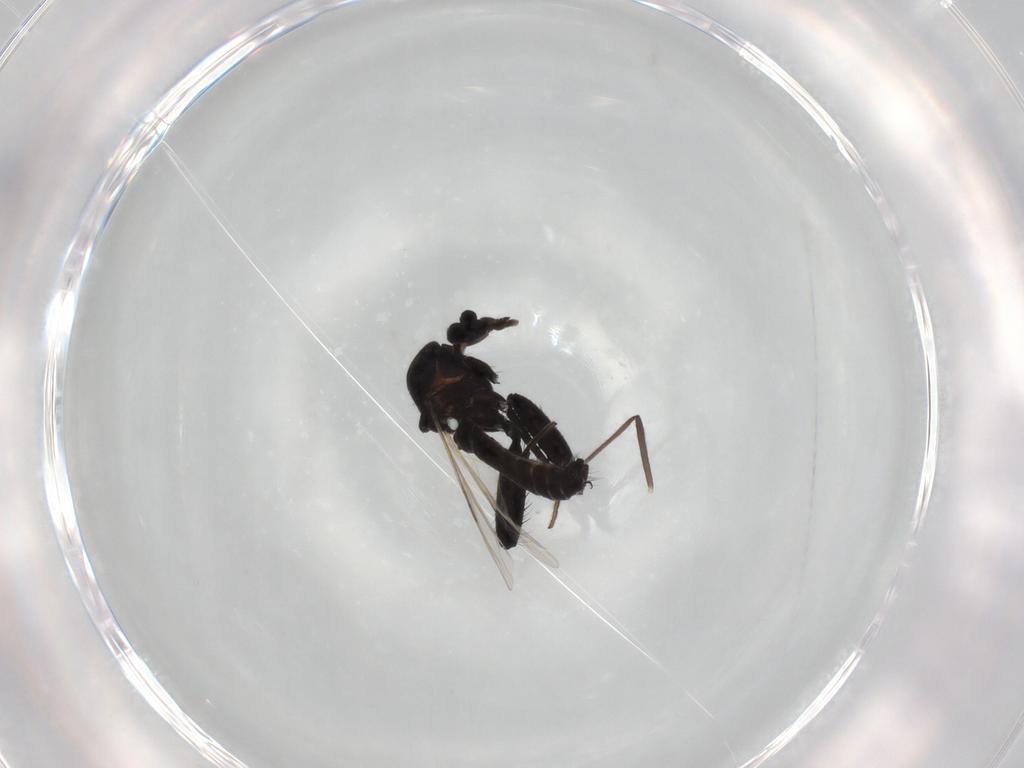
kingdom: Animalia
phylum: Arthropoda
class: Insecta
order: Diptera
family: Ceratopogonidae
